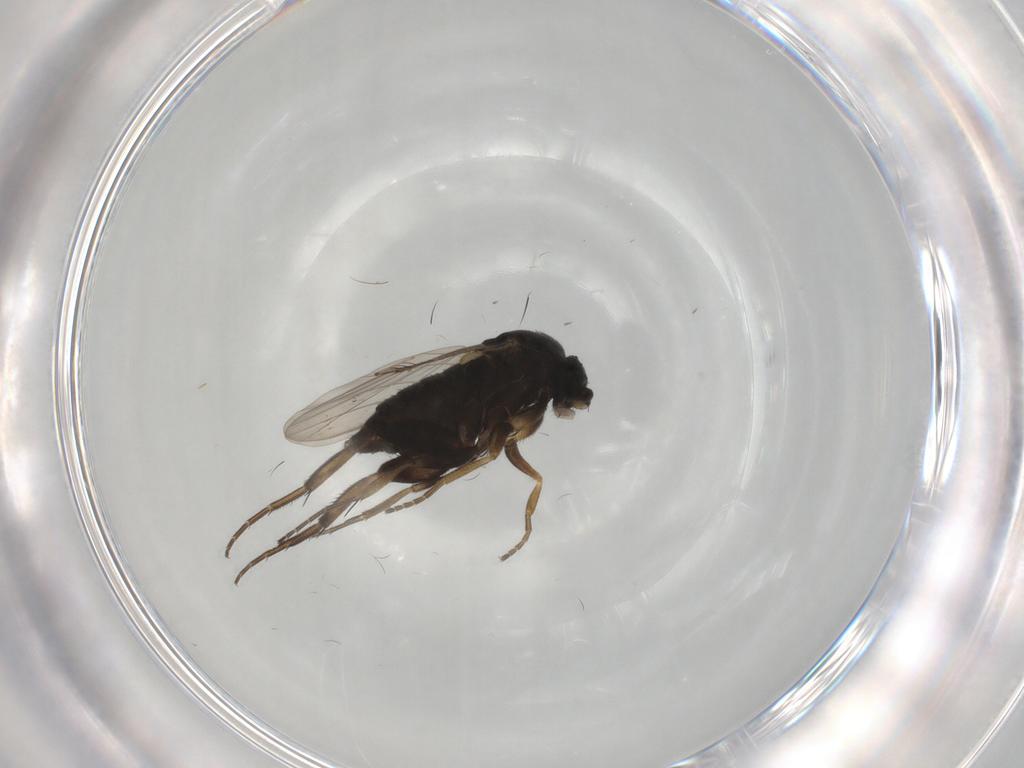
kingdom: Animalia
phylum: Arthropoda
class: Insecta
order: Diptera
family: Phoridae
